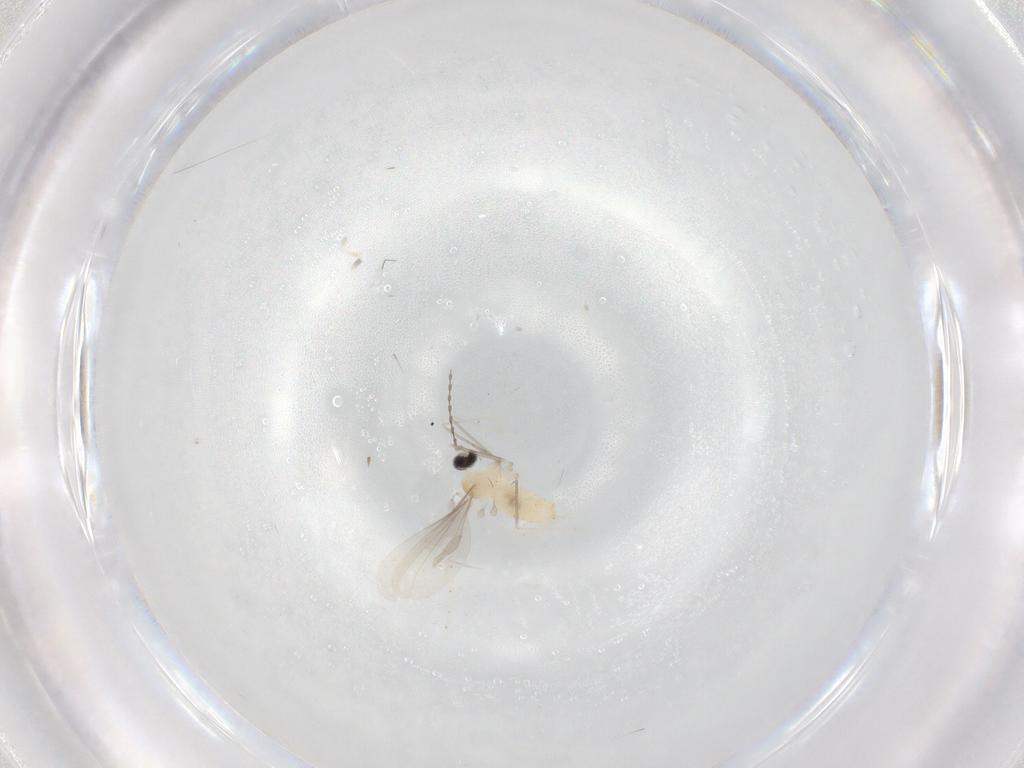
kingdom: Animalia
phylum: Arthropoda
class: Insecta
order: Diptera
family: Cecidomyiidae
